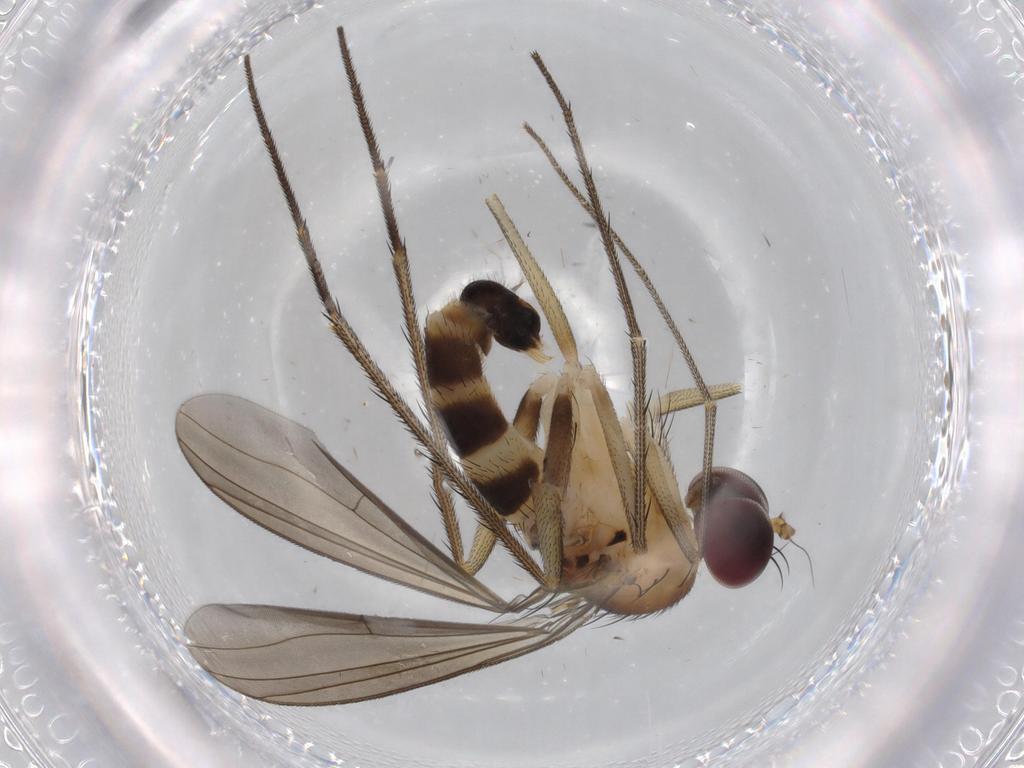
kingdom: Animalia
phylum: Arthropoda
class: Insecta
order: Diptera
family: Dolichopodidae
